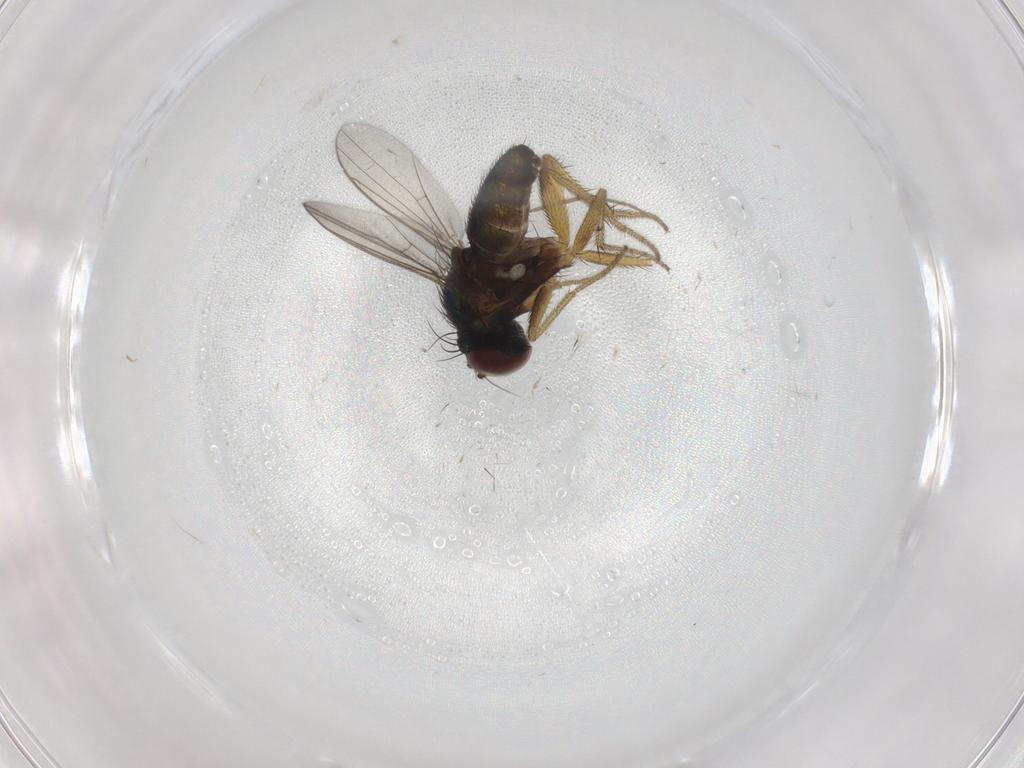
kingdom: Animalia
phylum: Arthropoda
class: Insecta
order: Diptera
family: Dolichopodidae
